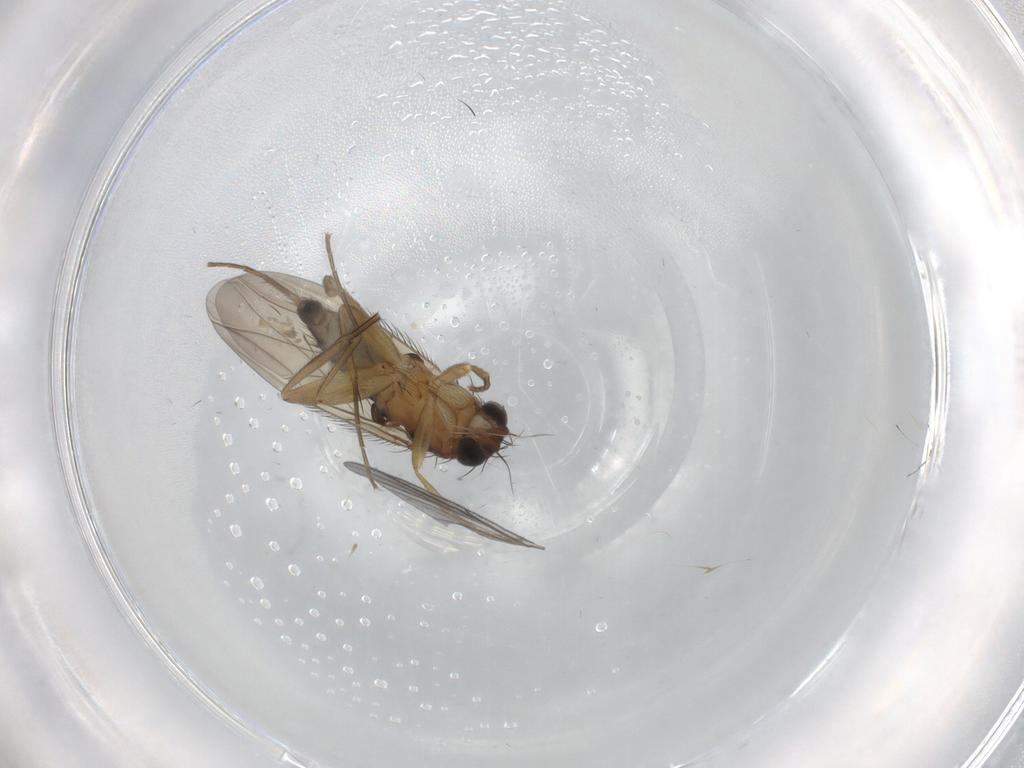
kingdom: Animalia
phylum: Arthropoda
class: Insecta
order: Diptera
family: Phoridae
